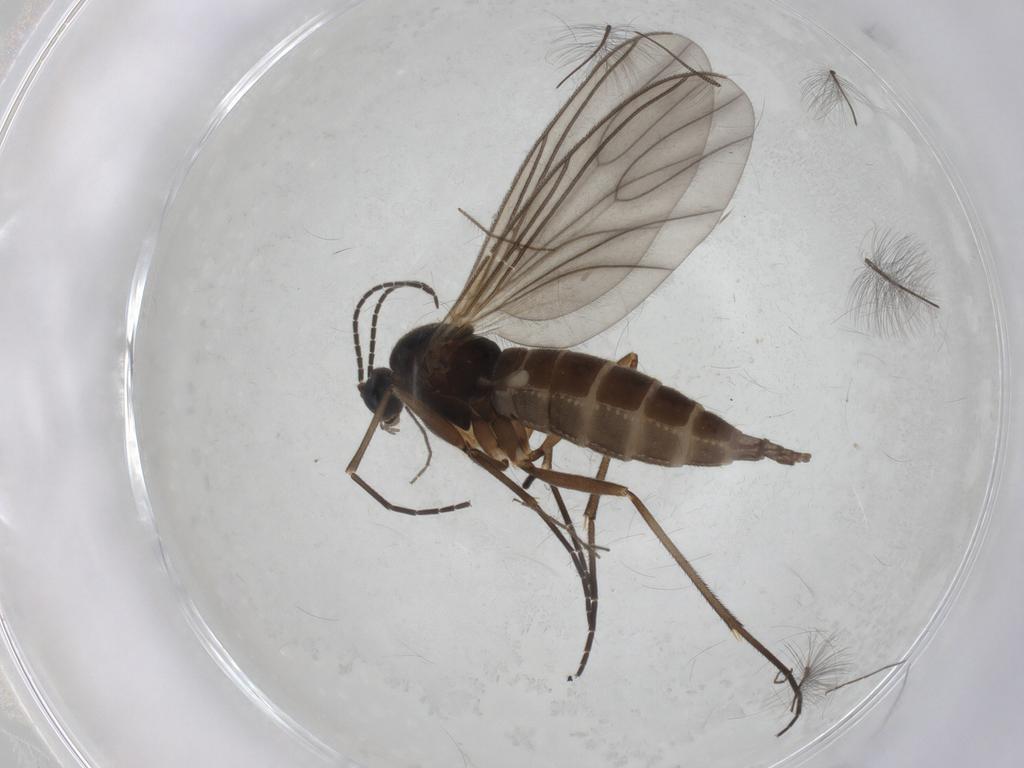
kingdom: Animalia
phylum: Arthropoda
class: Insecta
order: Diptera
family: Sciaridae
